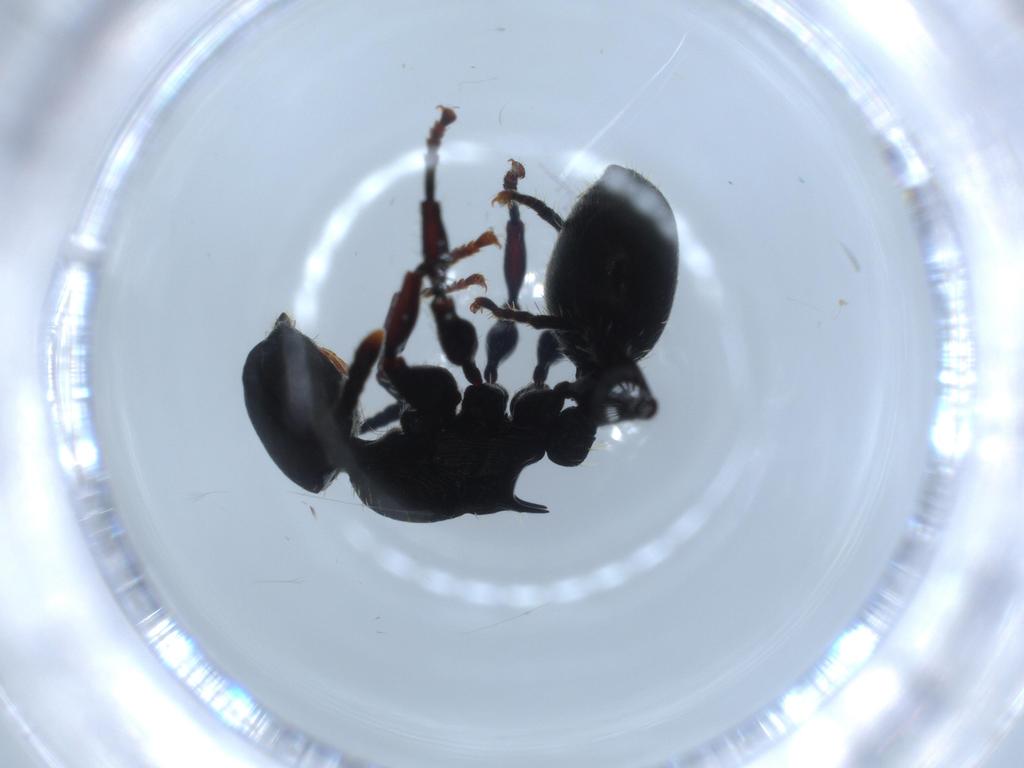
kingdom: Animalia
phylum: Arthropoda
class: Insecta
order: Hymenoptera
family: Formicidae
